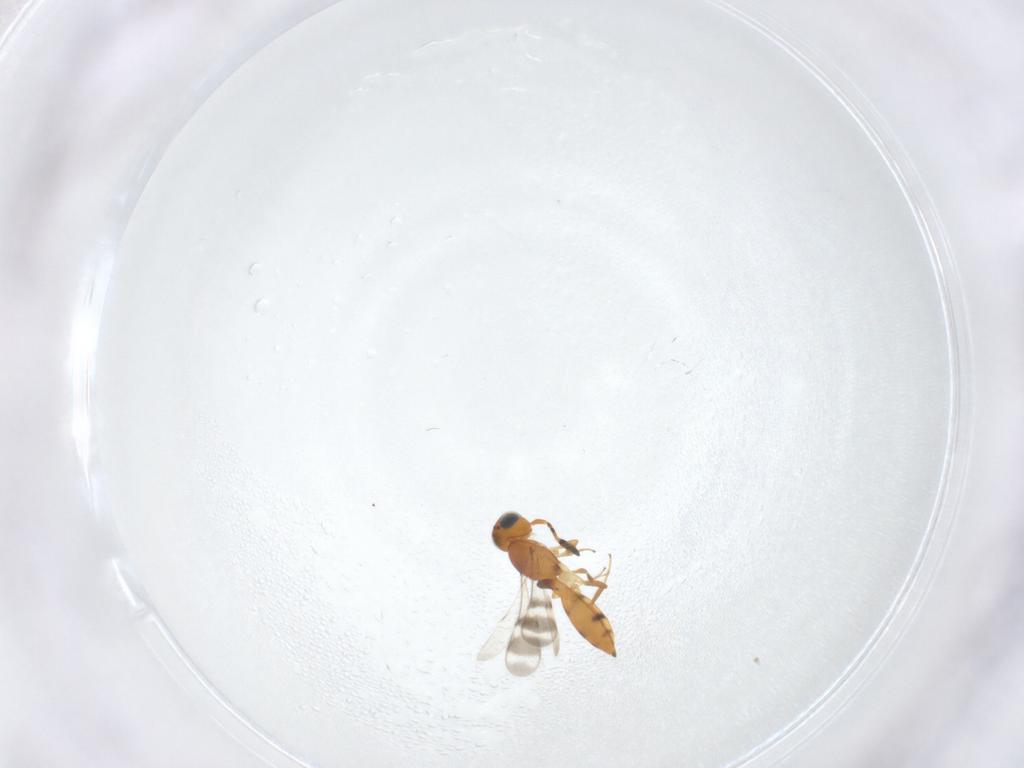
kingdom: Animalia
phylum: Arthropoda
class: Insecta
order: Hymenoptera
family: Scelionidae
